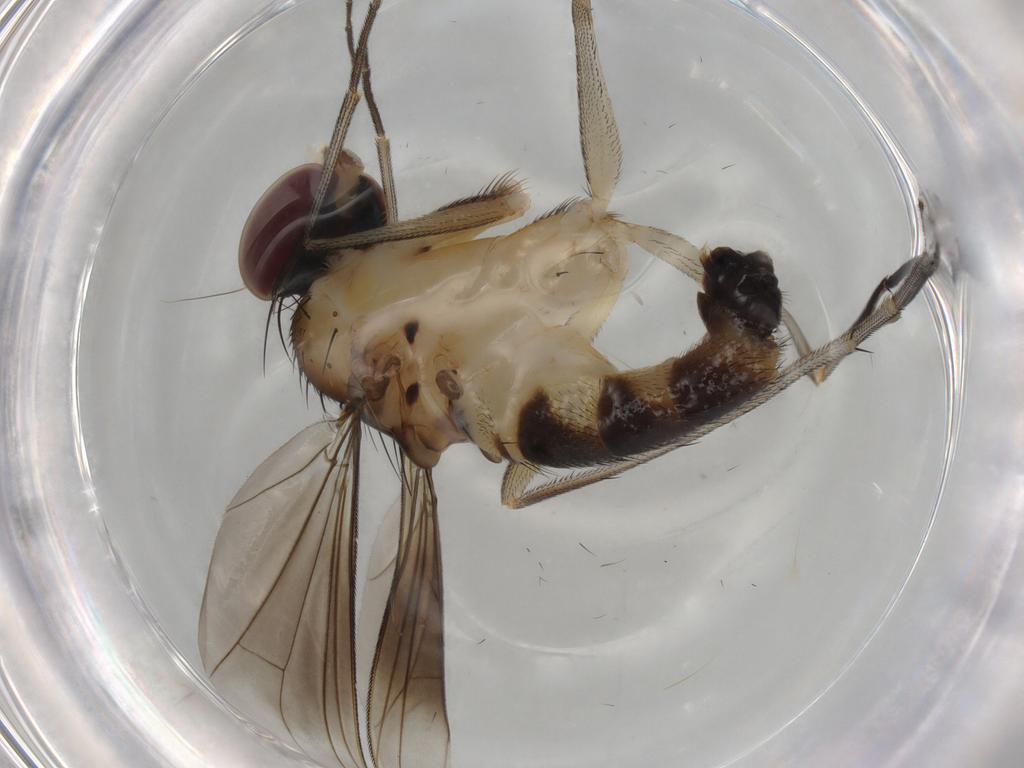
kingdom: Animalia
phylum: Arthropoda
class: Insecta
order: Diptera
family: Dolichopodidae
